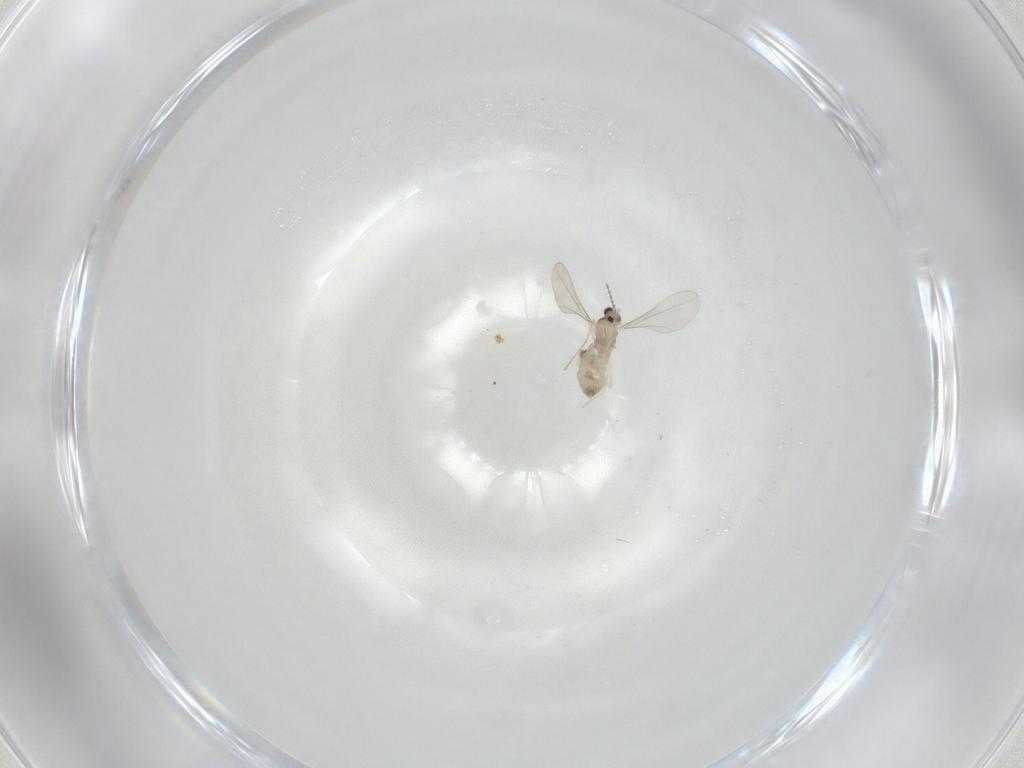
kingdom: Animalia
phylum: Arthropoda
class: Insecta
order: Diptera
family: Cecidomyiidae
